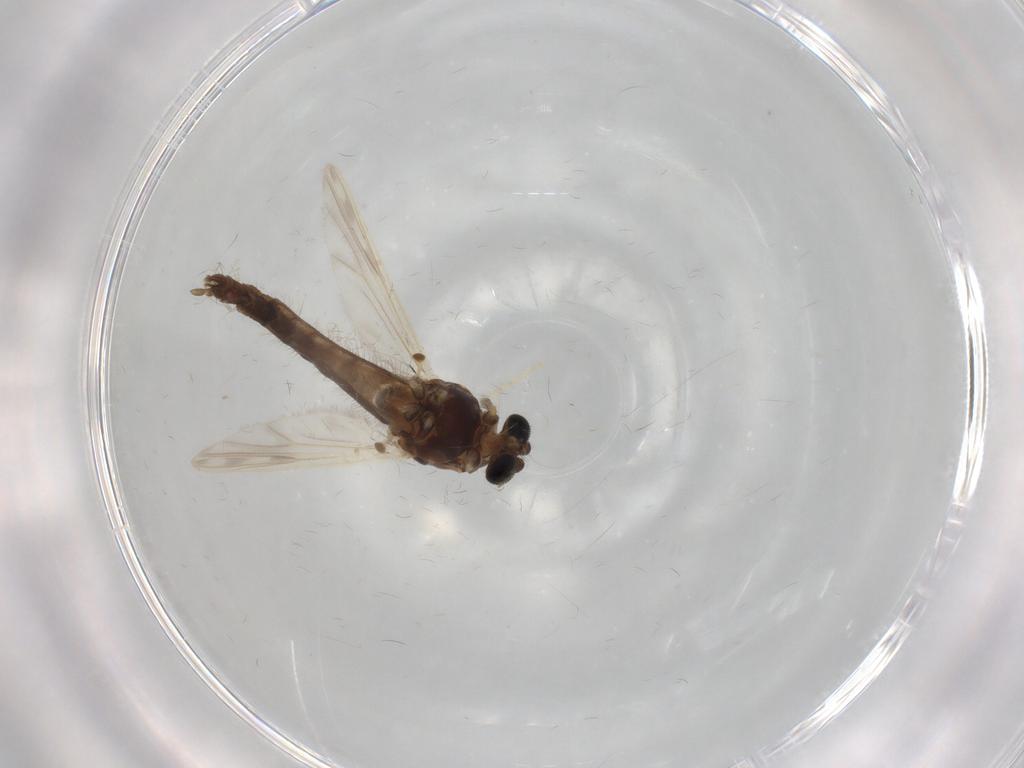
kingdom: Animalia
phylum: Arthropoda
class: Insecta
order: Diptera
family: Chironomidae
